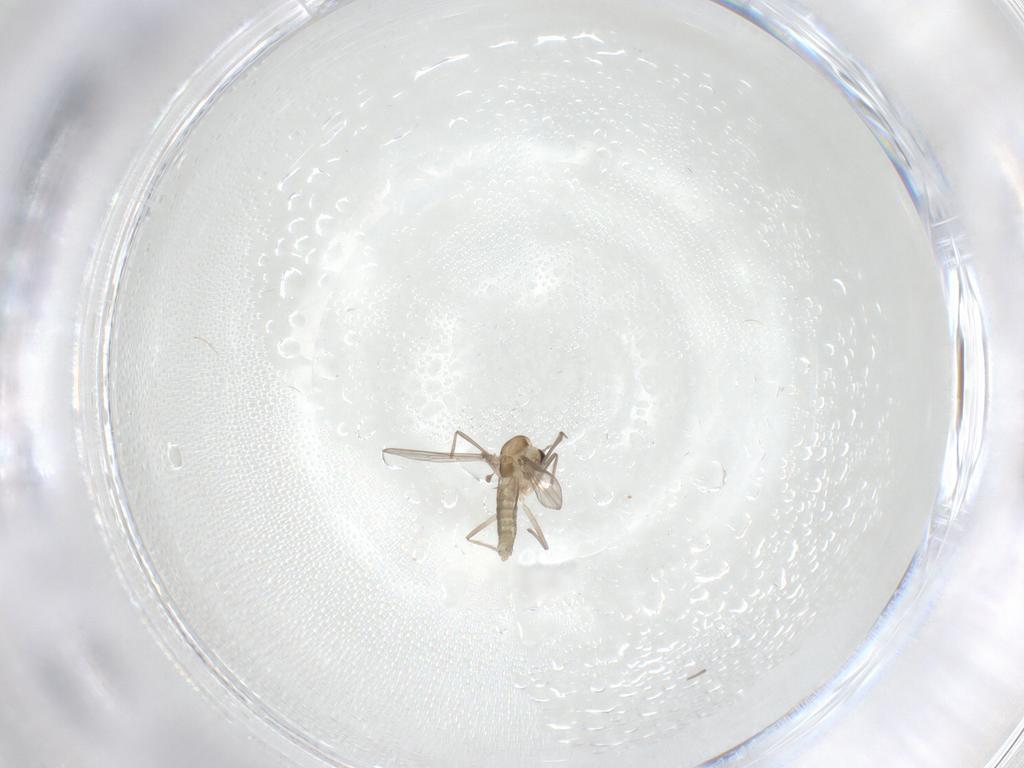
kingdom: Animalia
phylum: Arthropoda
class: Insecta
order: Diptera
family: Chironomidae
